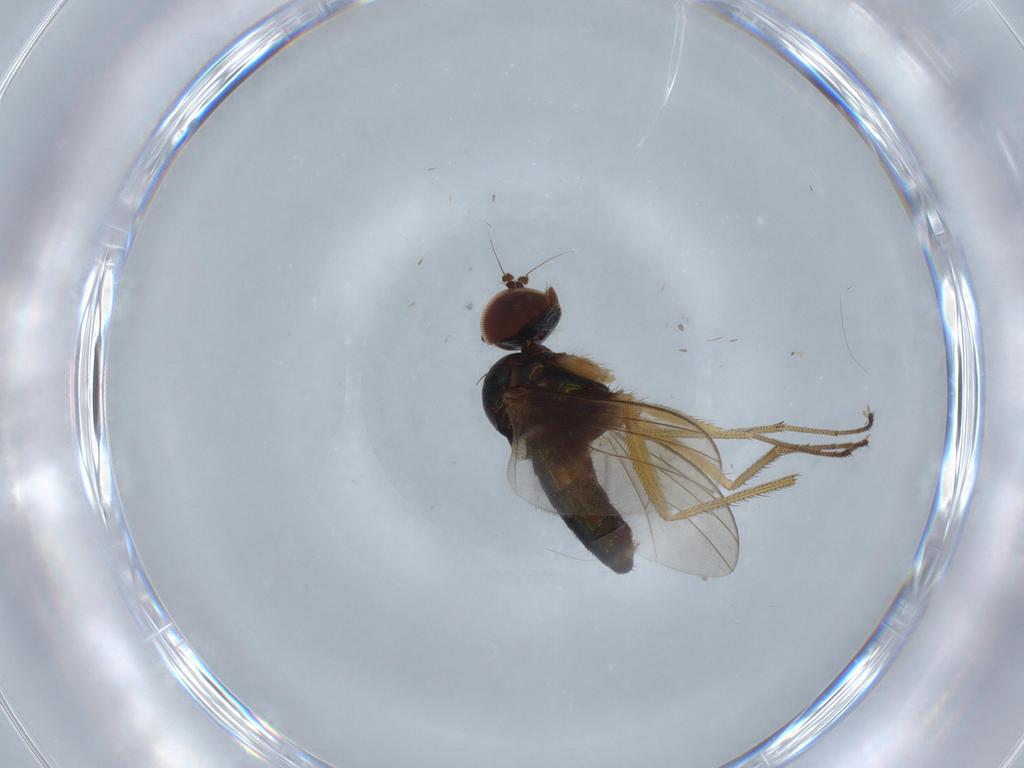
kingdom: Animalia
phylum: Arthropoda
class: Insecta
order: Diptera
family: Dolichopodidae
